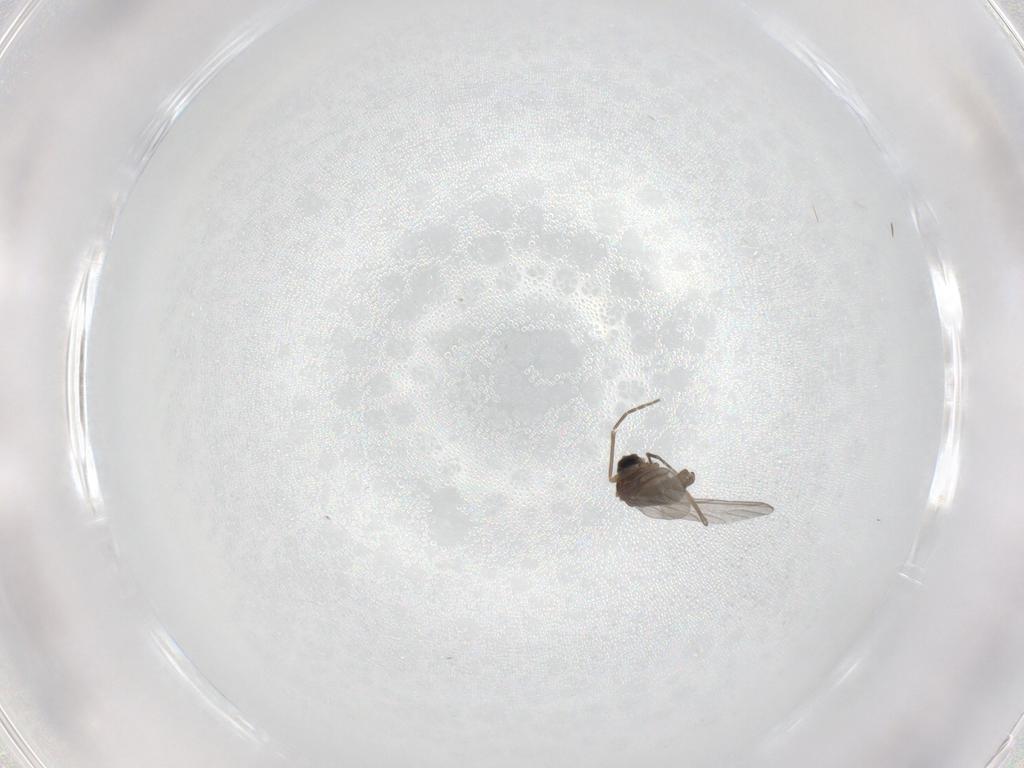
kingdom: Animalia
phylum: Arthropoda
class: Insecta
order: Diptera
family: Sciaridae
